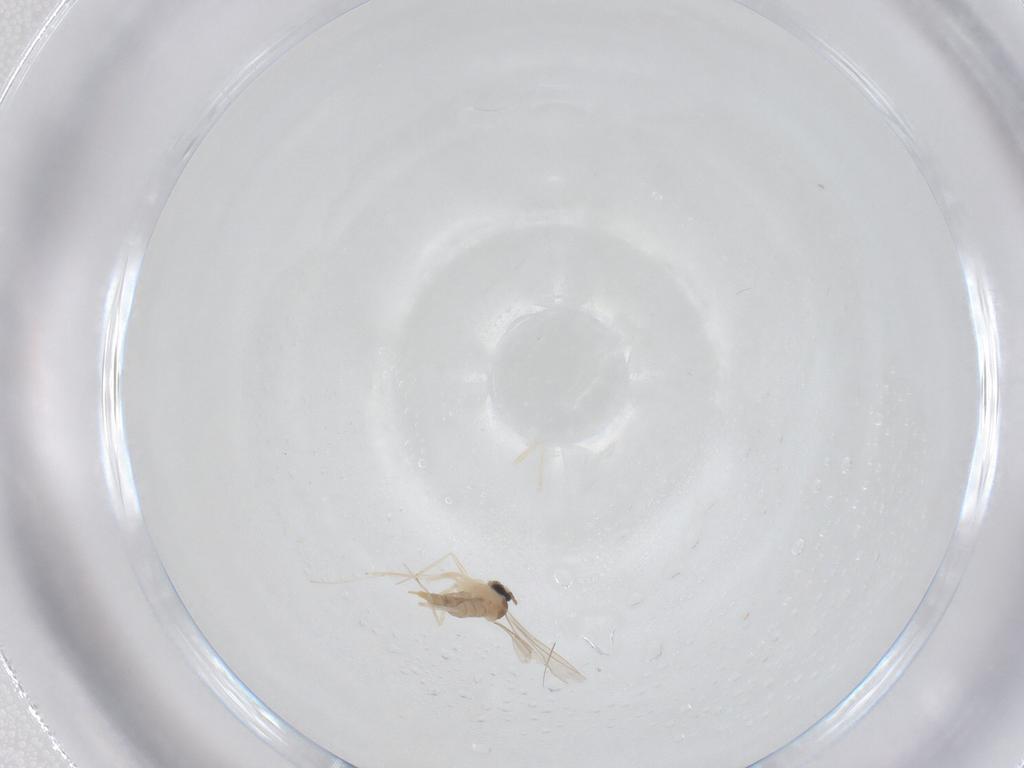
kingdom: Animalia
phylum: Arthropoda
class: Insecta
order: Diptera
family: Cecidomyiidae
